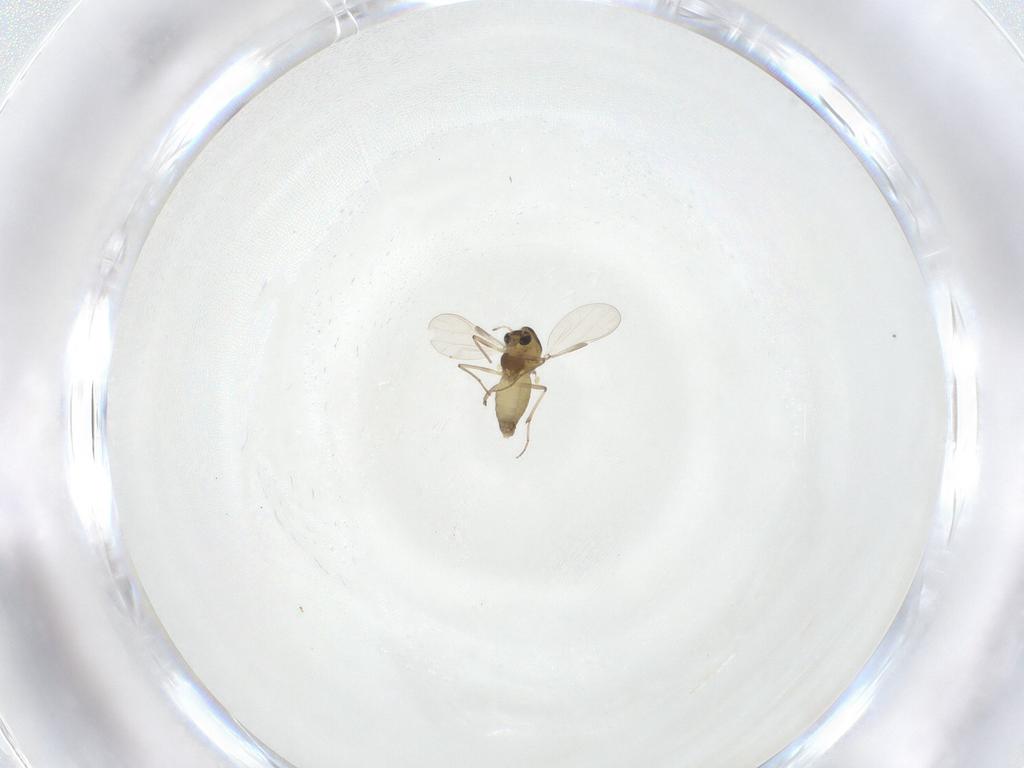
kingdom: Animalia
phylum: Arthropoda
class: Insecta
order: Diptera
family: Chironomidae
